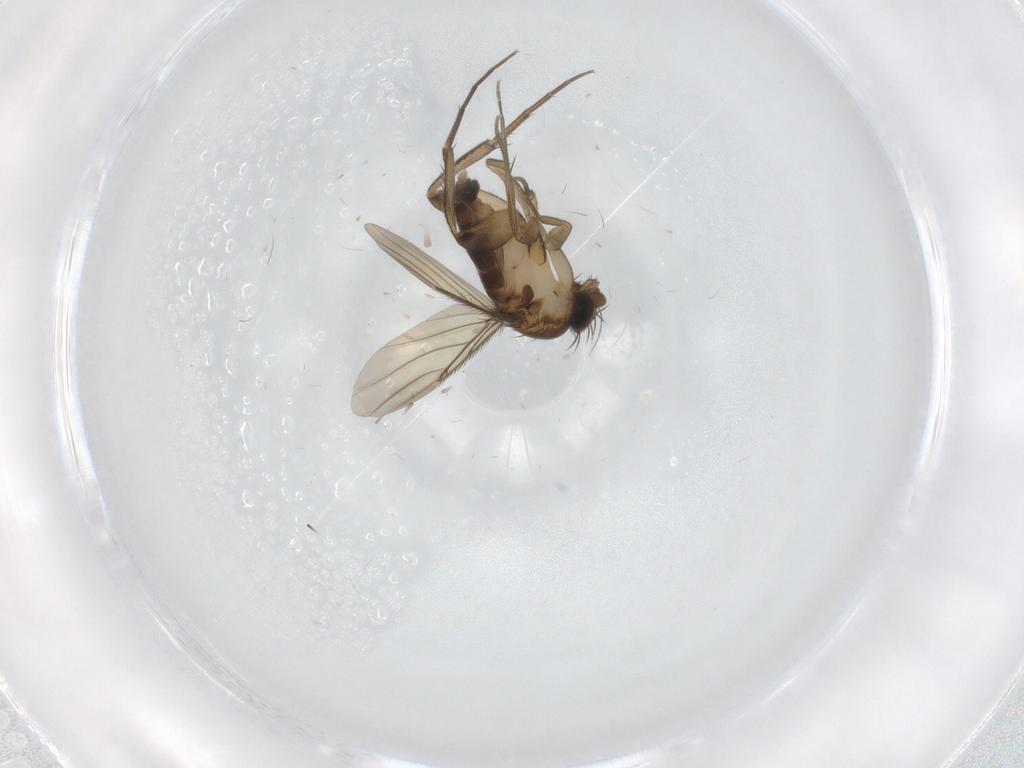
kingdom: Animalia
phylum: Arthropoda
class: Insecta
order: Diptera
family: Phoridae
